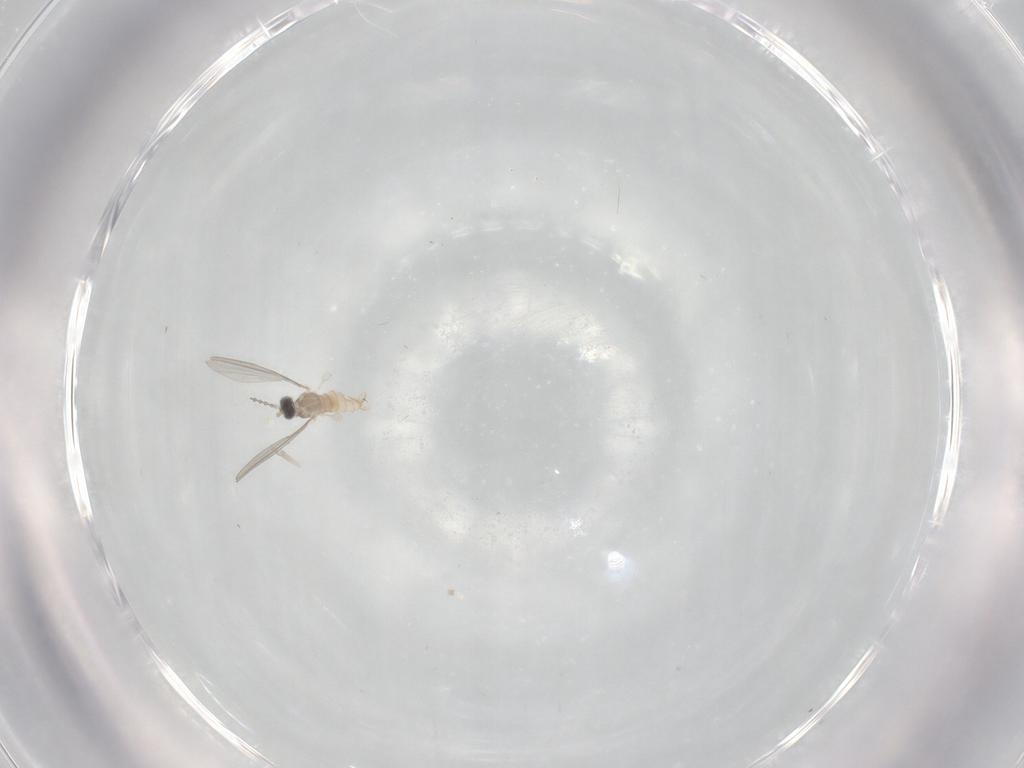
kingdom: Animalia
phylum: Arthropoda
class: Insecta
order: Diptera
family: Cecidomyiidae
